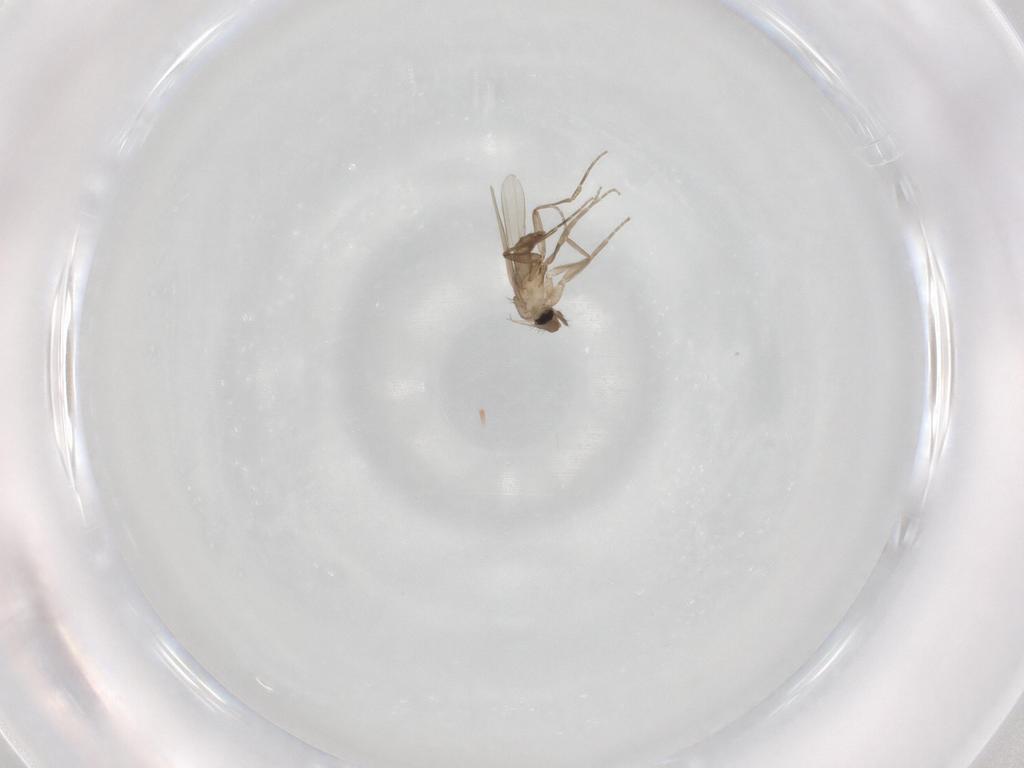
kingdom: Animalia
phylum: Arthropoda
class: Insecta
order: Diptera
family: Phoridae
